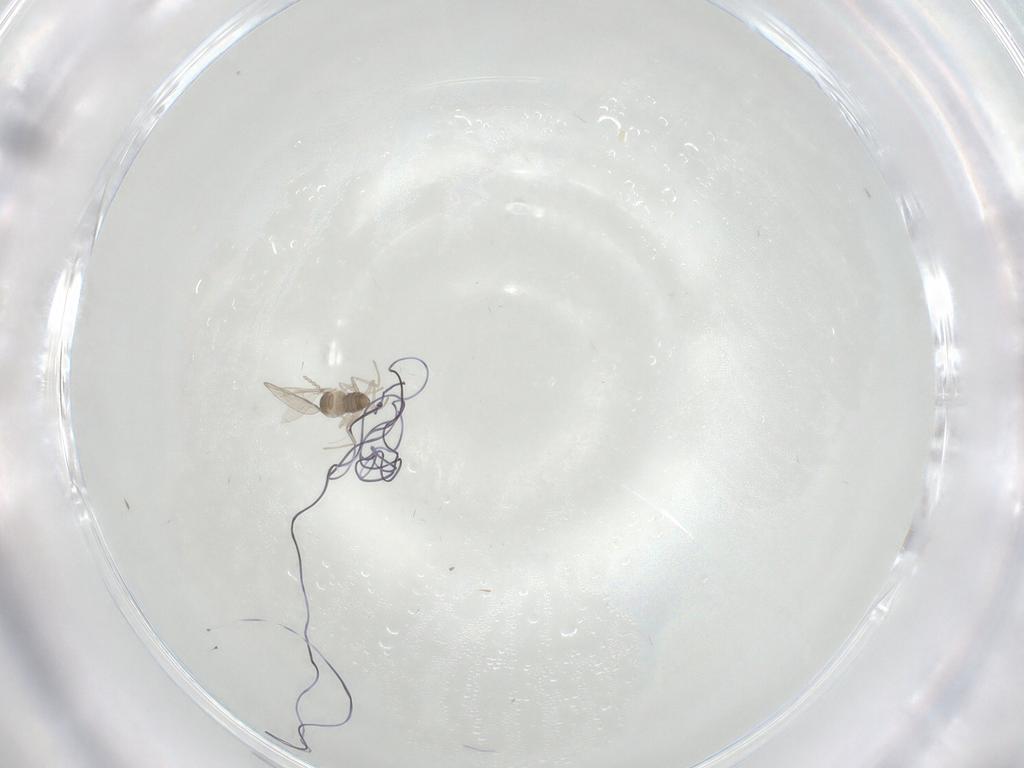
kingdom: Animalia
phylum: Arthropoda
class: Insecta
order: Diptera
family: Cecidomyiidae
